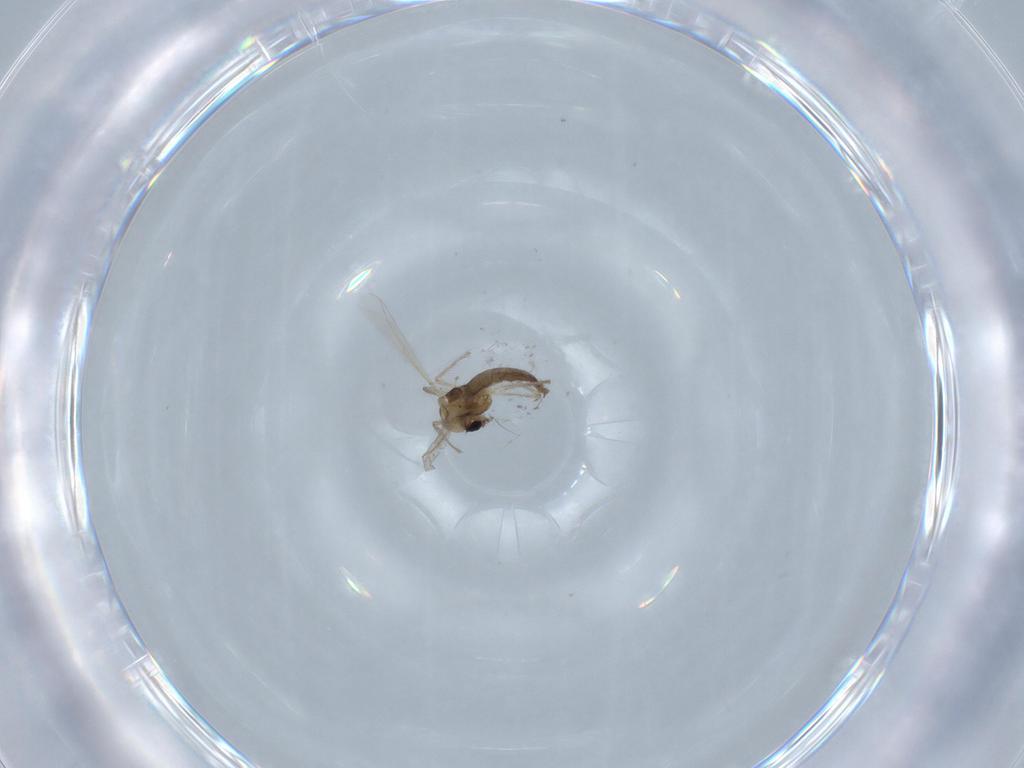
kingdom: Animalia
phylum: Arthropoda
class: Insecta
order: Diptera
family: Chironomidae
